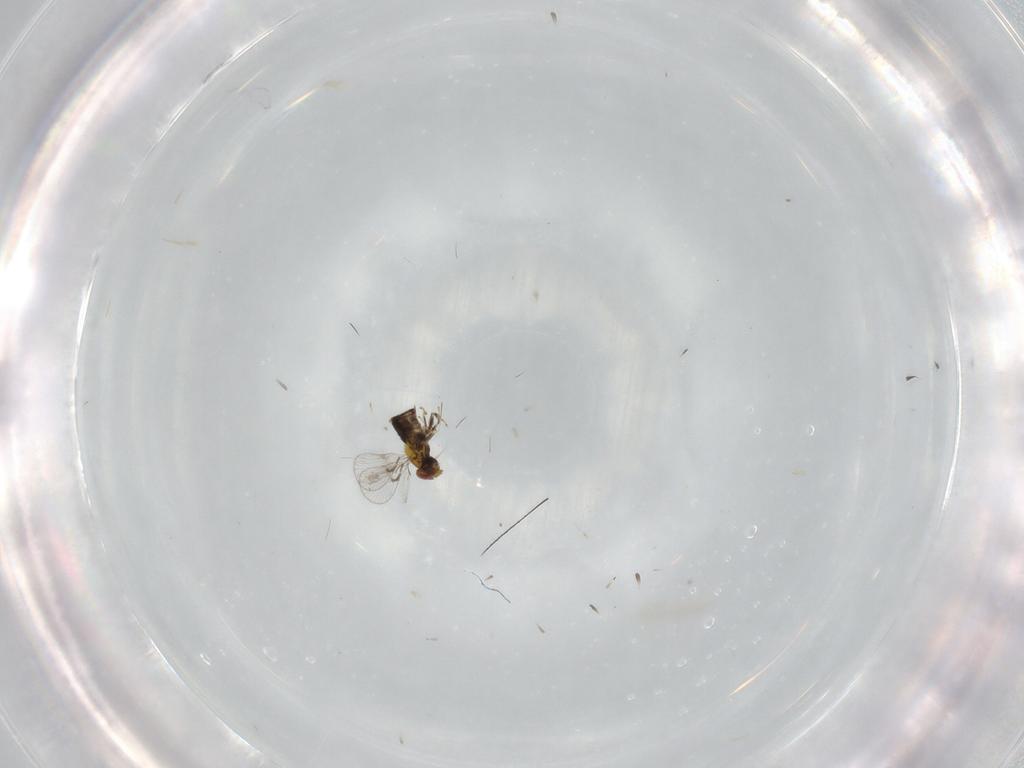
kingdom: Animalia
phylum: Arthropoda
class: Insecta
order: Hymenoptera
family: Trichogrammatidae
